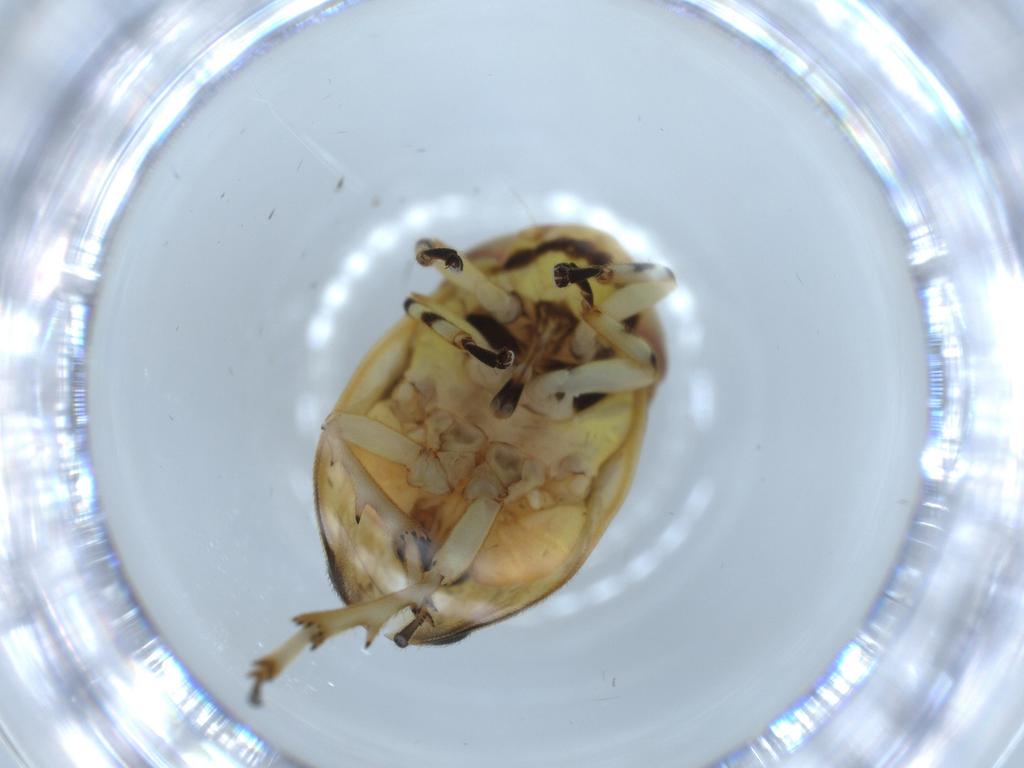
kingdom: Animalia
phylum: Arthropoda
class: Insecta
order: Hemiptera
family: Clastopteridae
